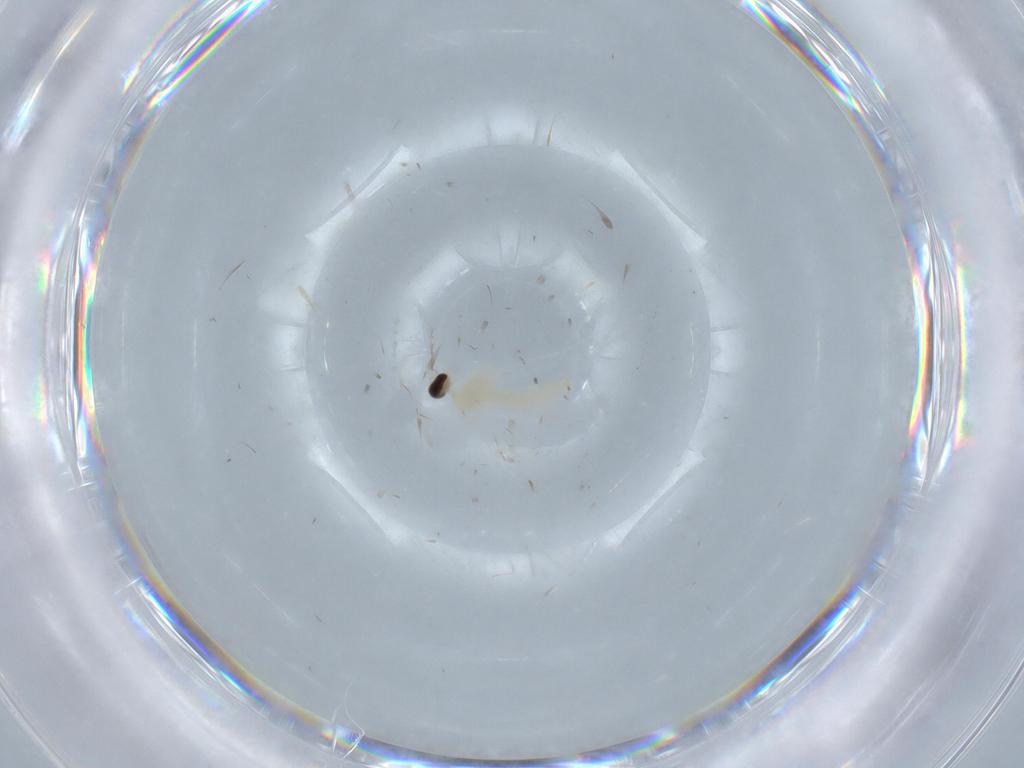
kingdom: Animalia
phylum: Arthropoda
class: Insecta
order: Diptera
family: Cecidomyiidae
